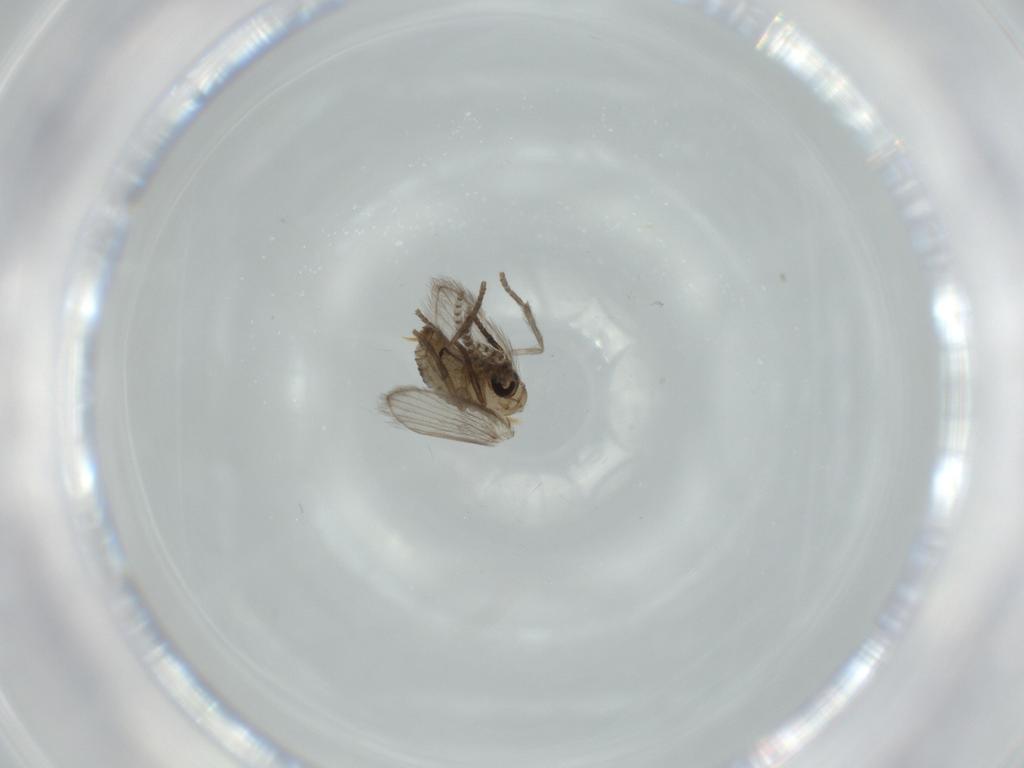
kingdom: Animalia
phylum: Arthropoda
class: Insecta
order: Diptera
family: Psychodidae
